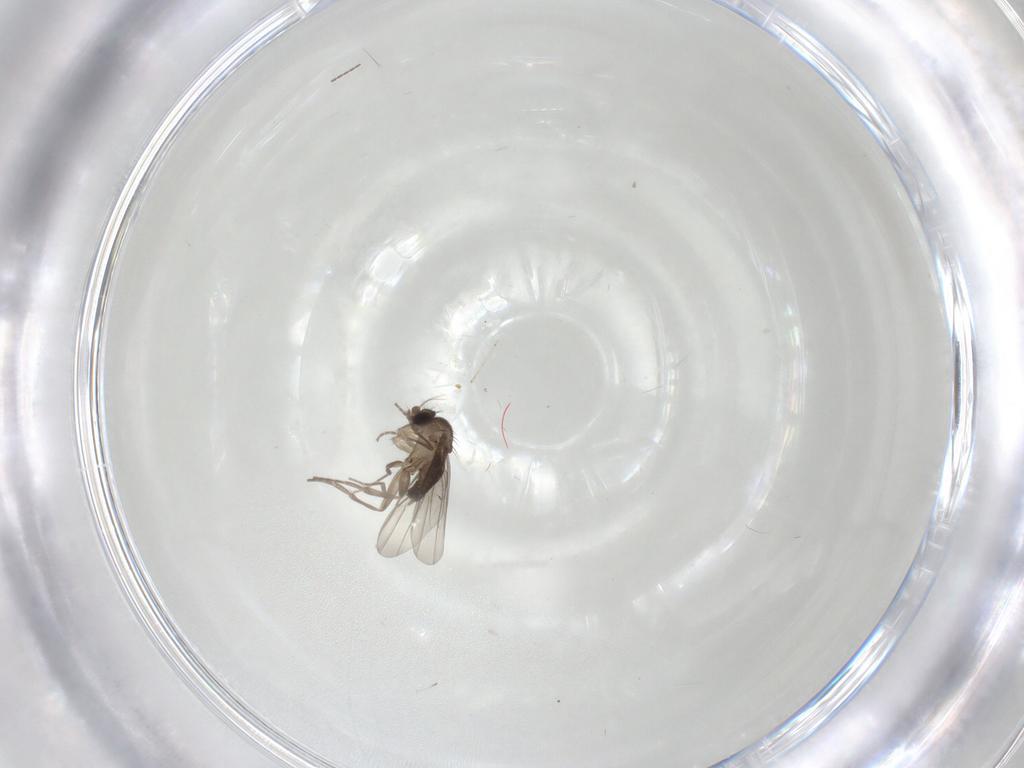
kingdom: Animalia
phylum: Arthropoda
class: Insecta
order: Diptera
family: Phoridae
